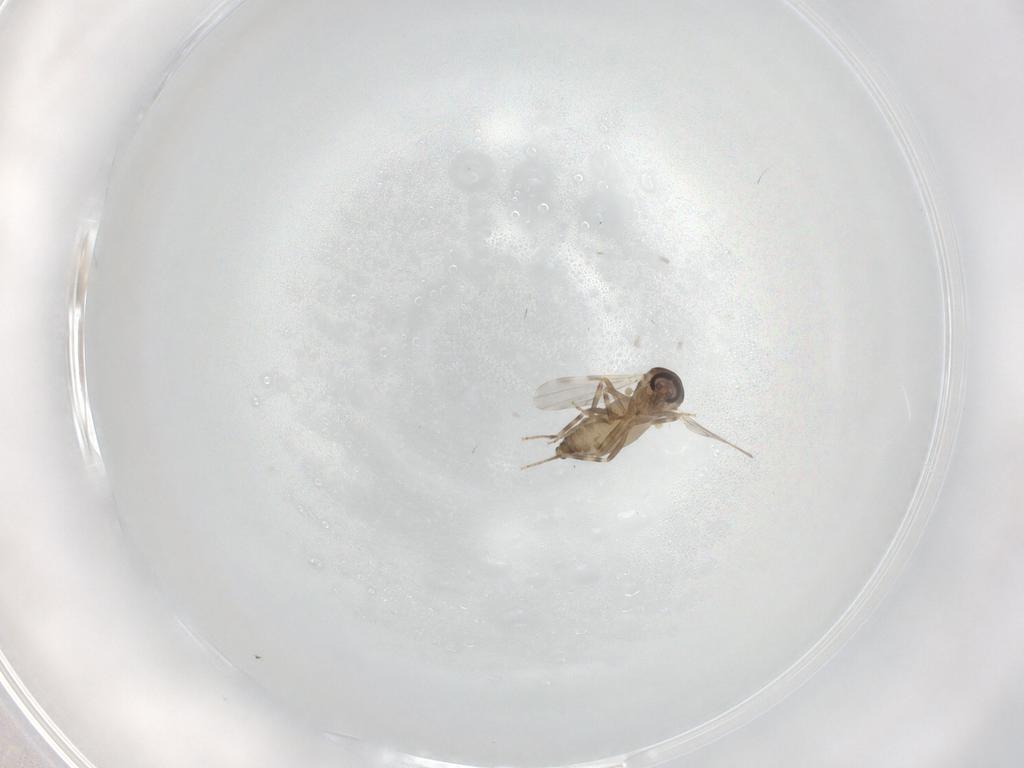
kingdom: Animalia
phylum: Arthropoda
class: Insecta
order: Diptera
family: Ceratopogonidae
